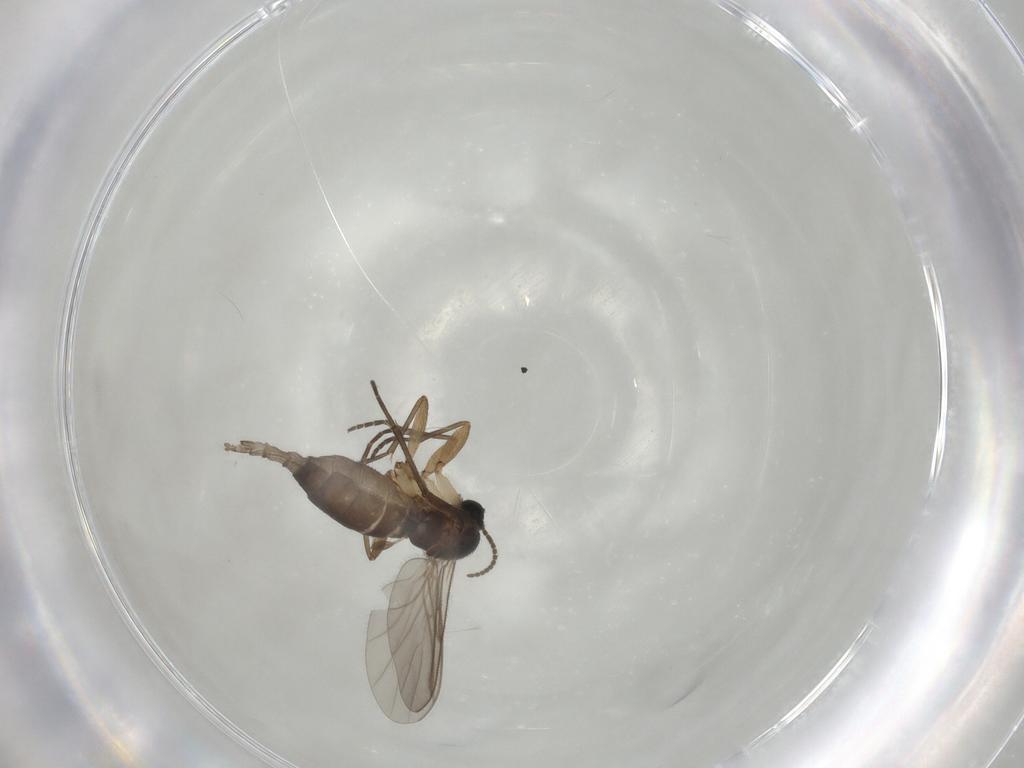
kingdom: Animalia
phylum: Arthropoda
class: Insecta
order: Diptera
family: Sciaridae
